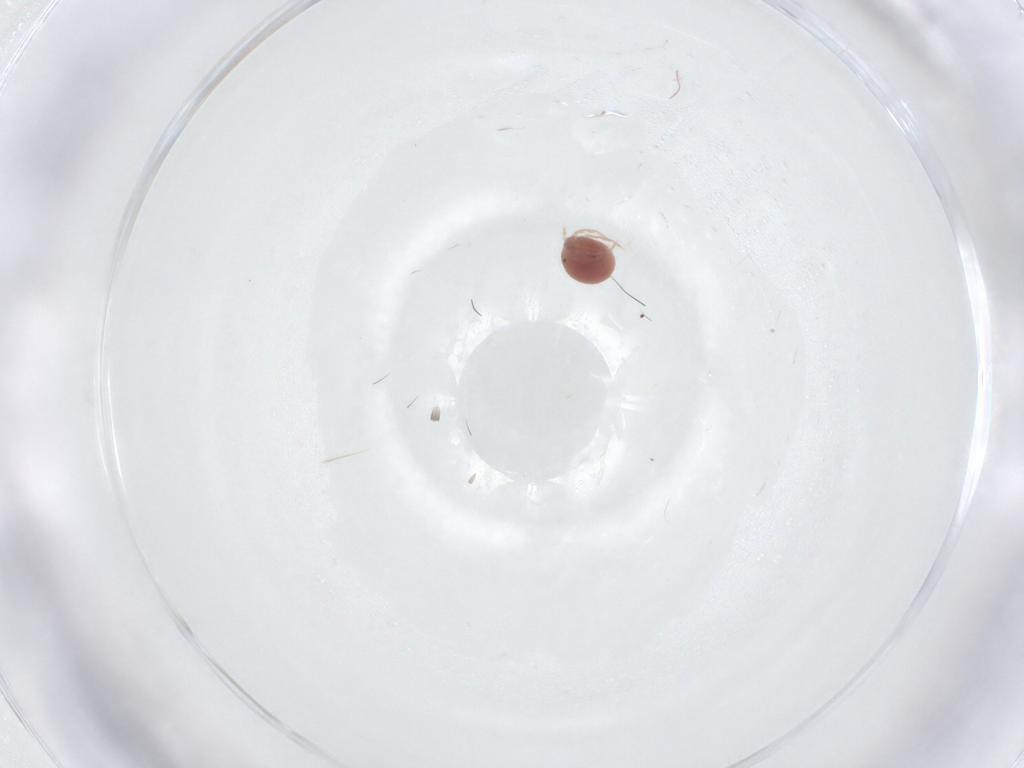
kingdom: Animalia
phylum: Arthropoda
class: Arachnida
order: Trombidiformes
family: Lebertiidae
